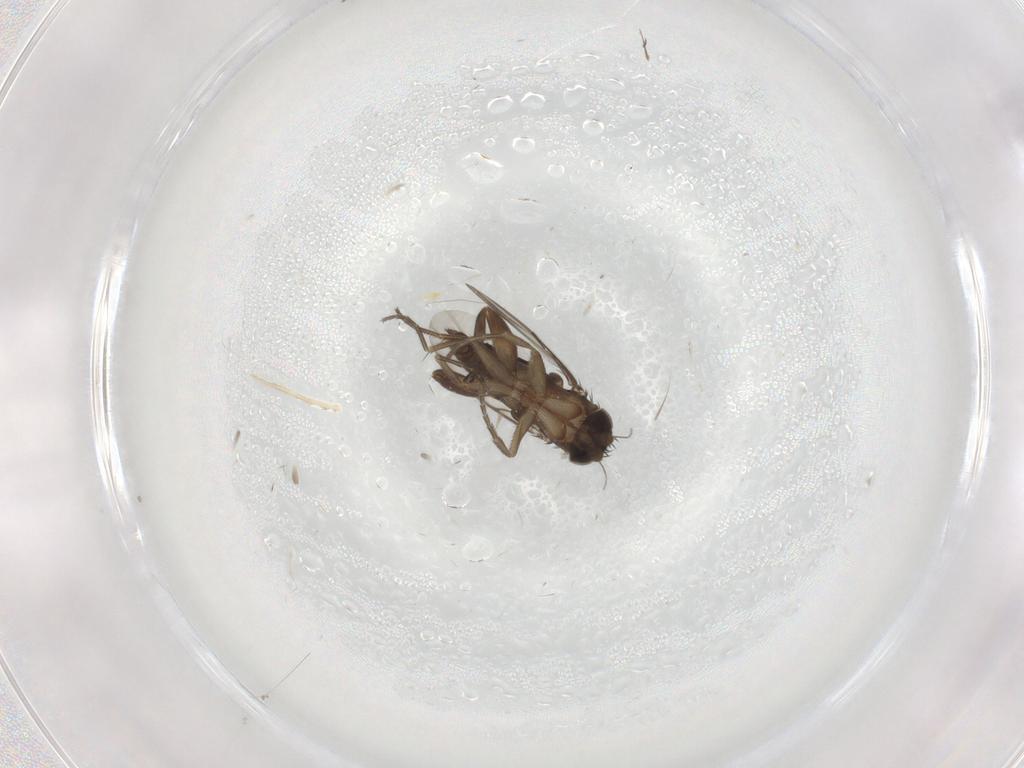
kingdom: Animalia
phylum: Arthropoda
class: Insecta
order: Diptera
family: Phoridae
